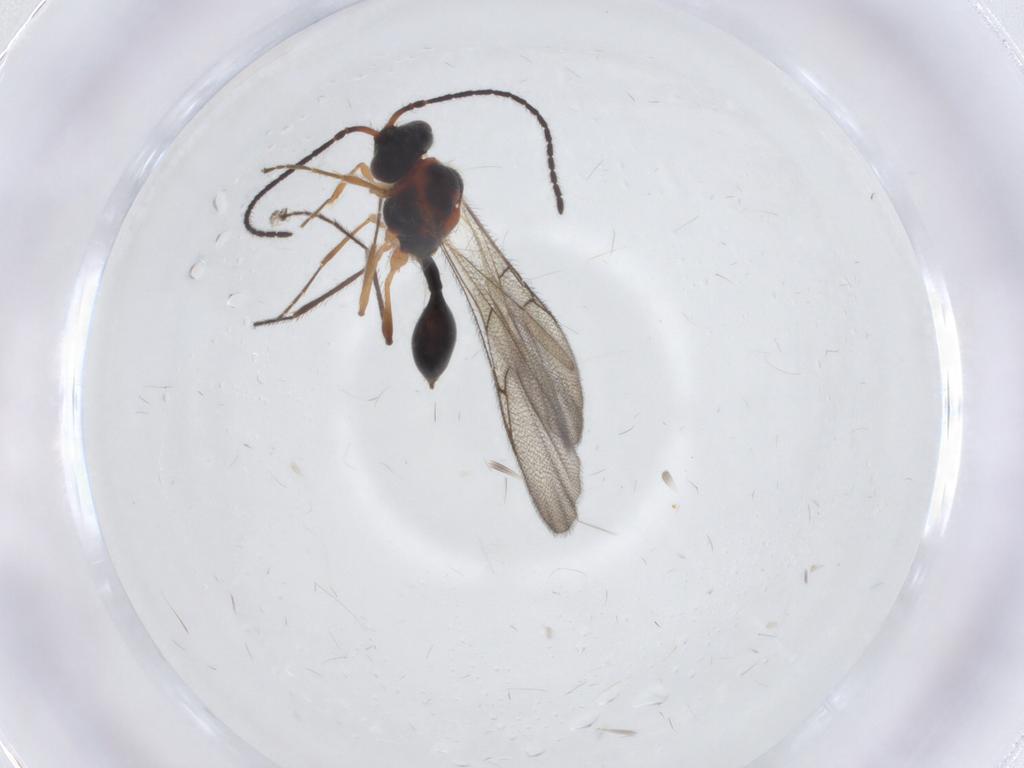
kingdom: Animalia
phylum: Arthropoda
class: Insecta
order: Hymenoptera
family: Diapriidae
